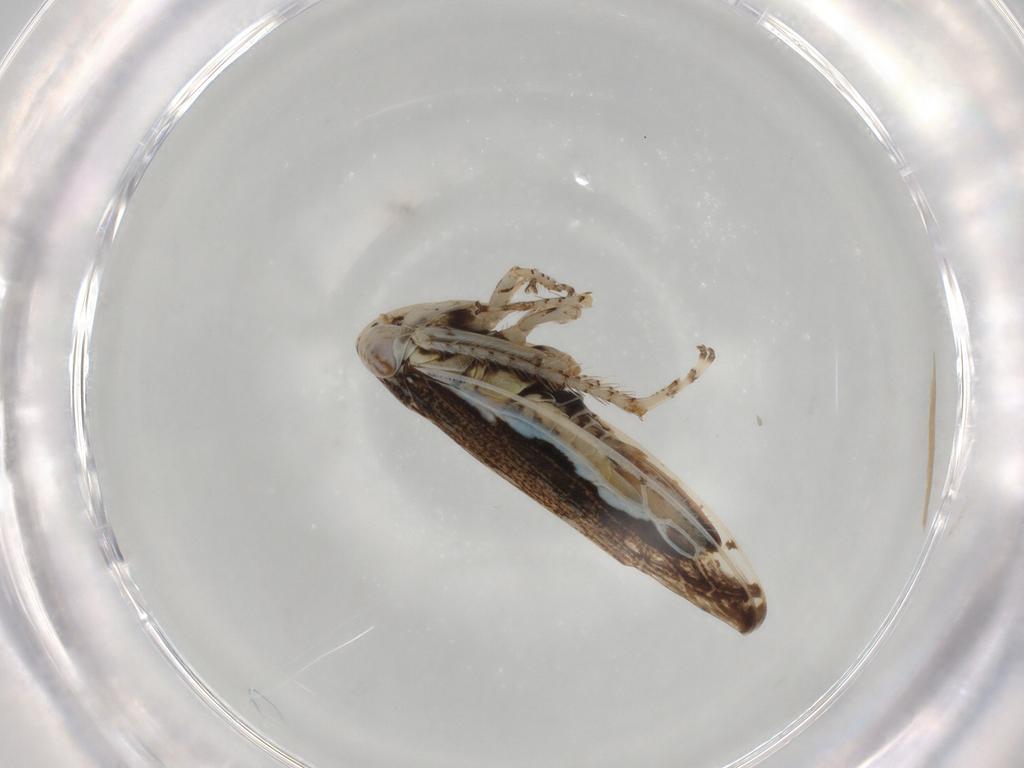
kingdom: Animalia
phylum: Arthropoda
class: Insecta
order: Hemiptera
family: Cicadellidae
